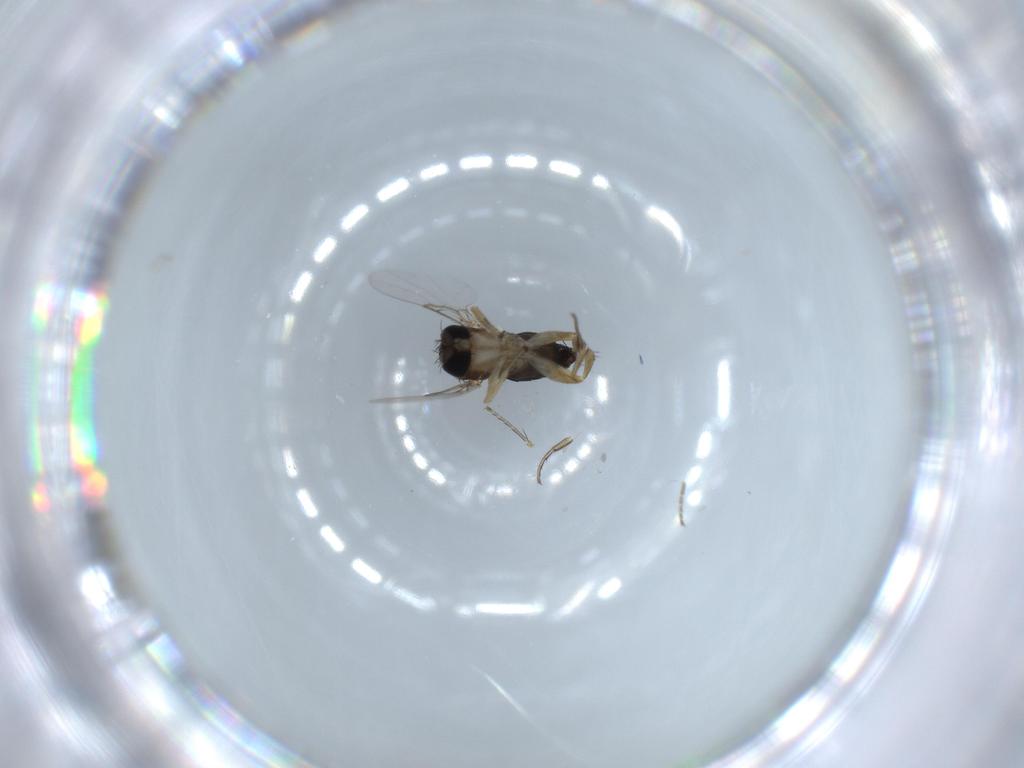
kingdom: Animalia
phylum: Arthropoda
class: Insecta
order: Diptera
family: Phoridae
